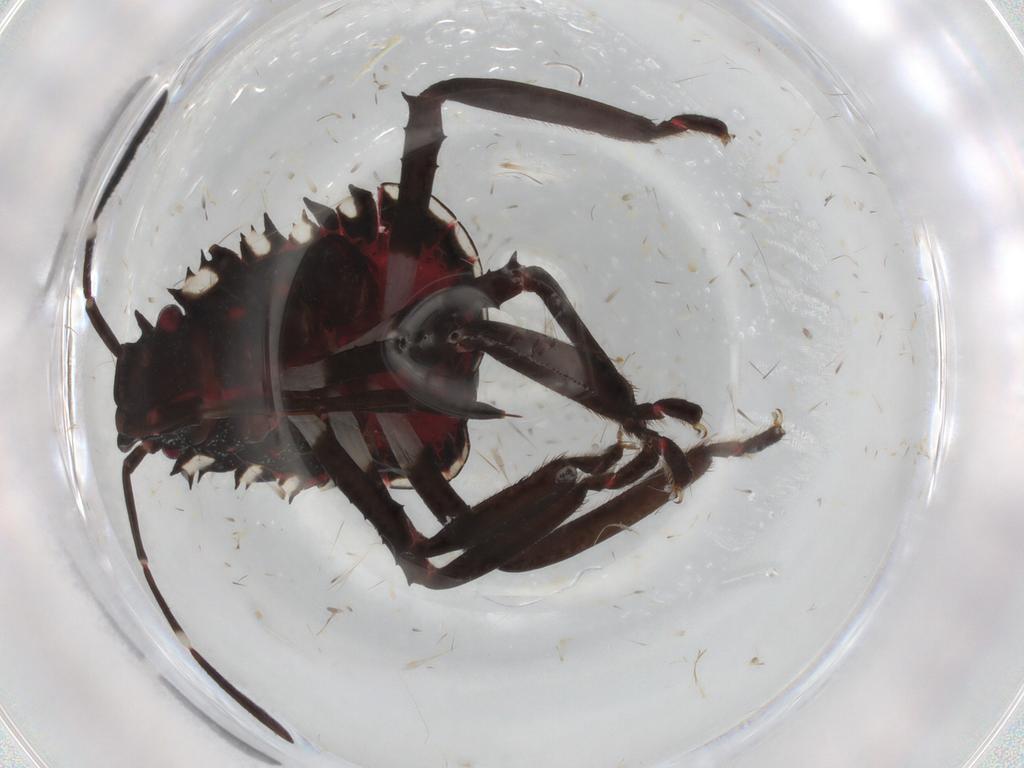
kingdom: Animalia
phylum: Arthropoda
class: Insecta
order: Hemiptera
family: Pentatomidae
